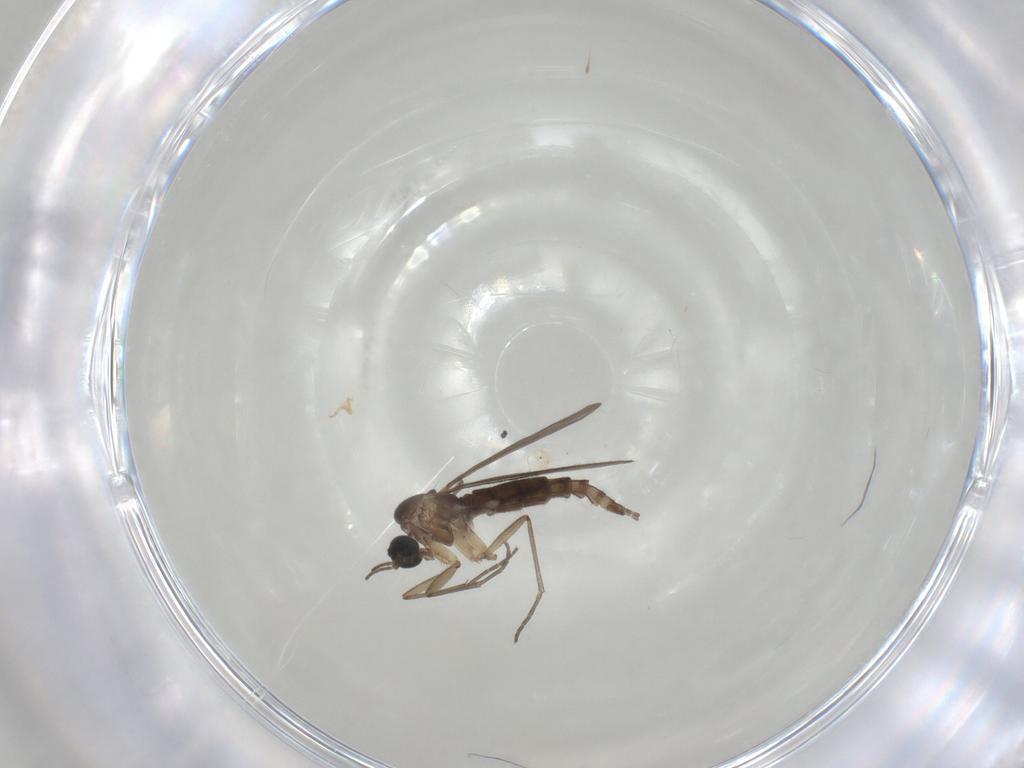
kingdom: Animalia
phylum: Arthropoda
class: Insecta
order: Diptera
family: Sciaridae
